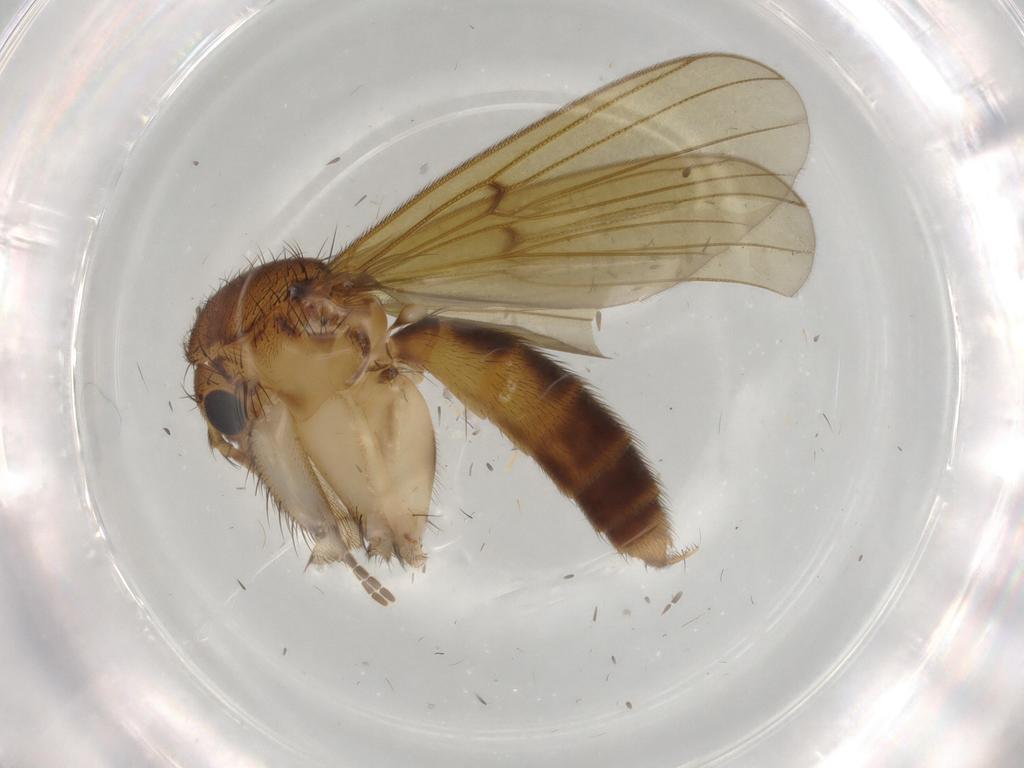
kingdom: Animalia
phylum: Arthropoda
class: Insecta
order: Diptera
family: Mycetophilidae
